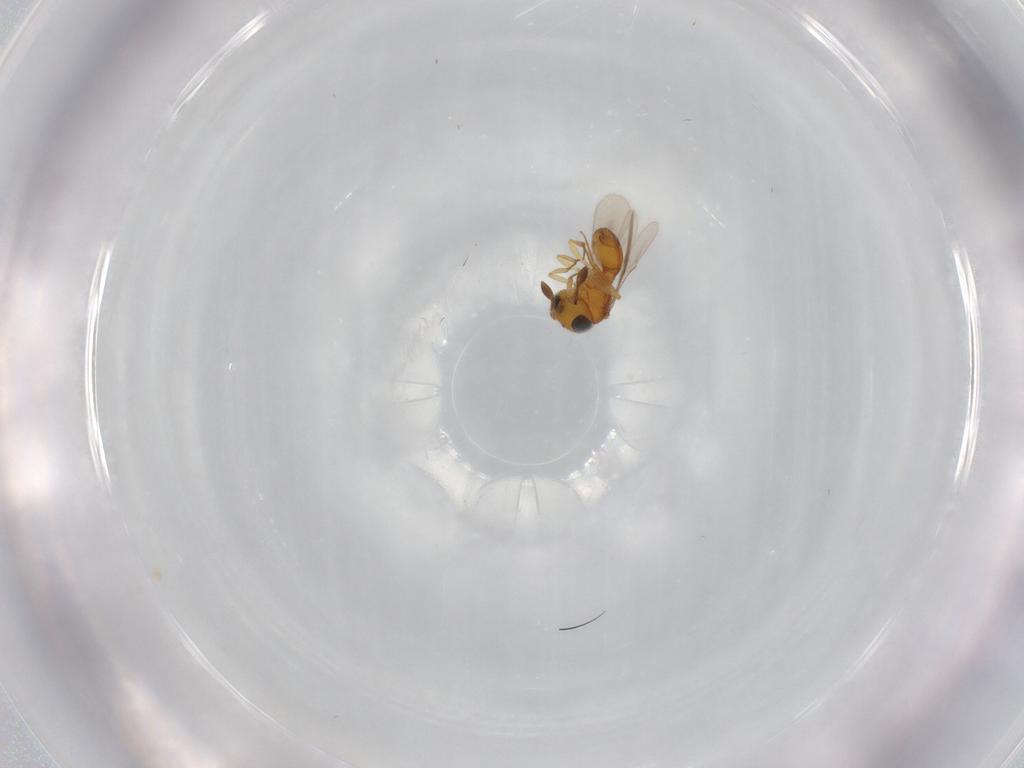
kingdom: Animalia
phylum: Arthropoda
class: Insecta
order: Hymenoptera
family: Scelionidae
